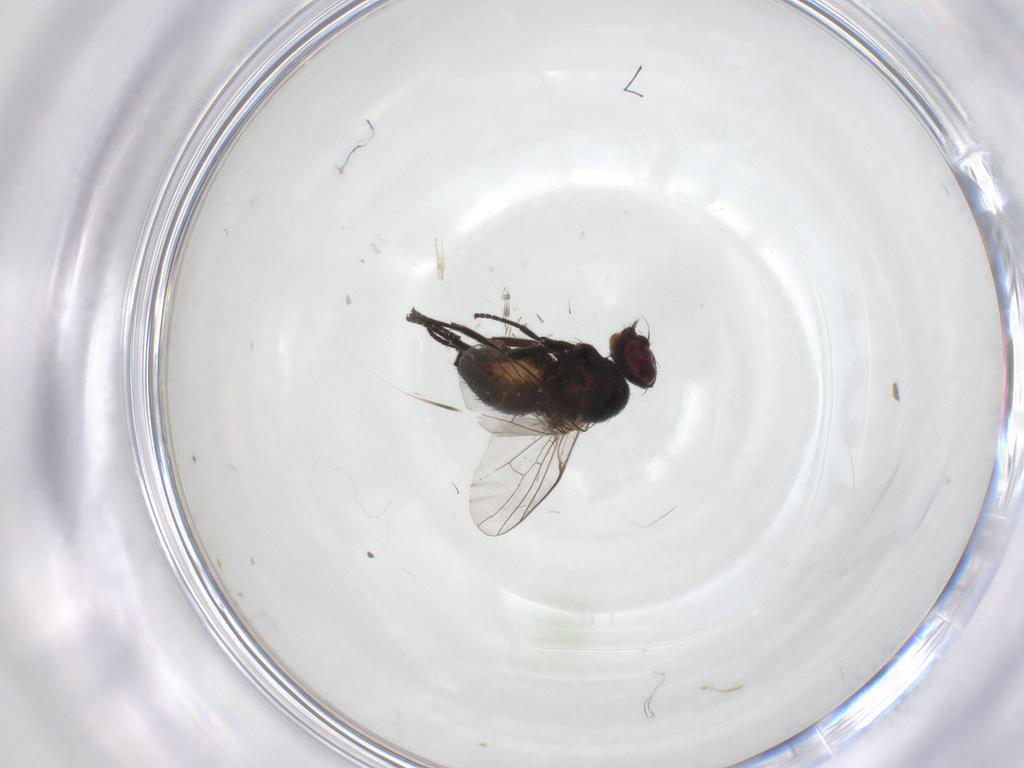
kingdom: Animalia
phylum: Arthropoda
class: Insecta
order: Diptera
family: Agromyzidae
